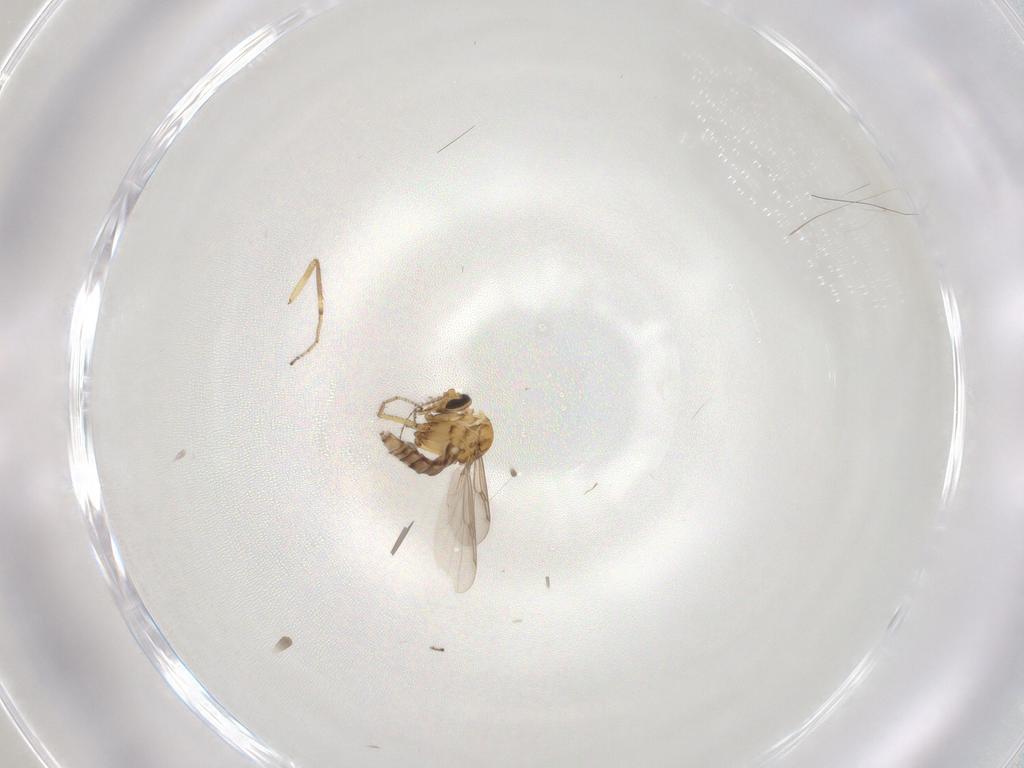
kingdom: Animalia
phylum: Arthropoda
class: Insecta
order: Diptera
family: Ceratopogonidae
